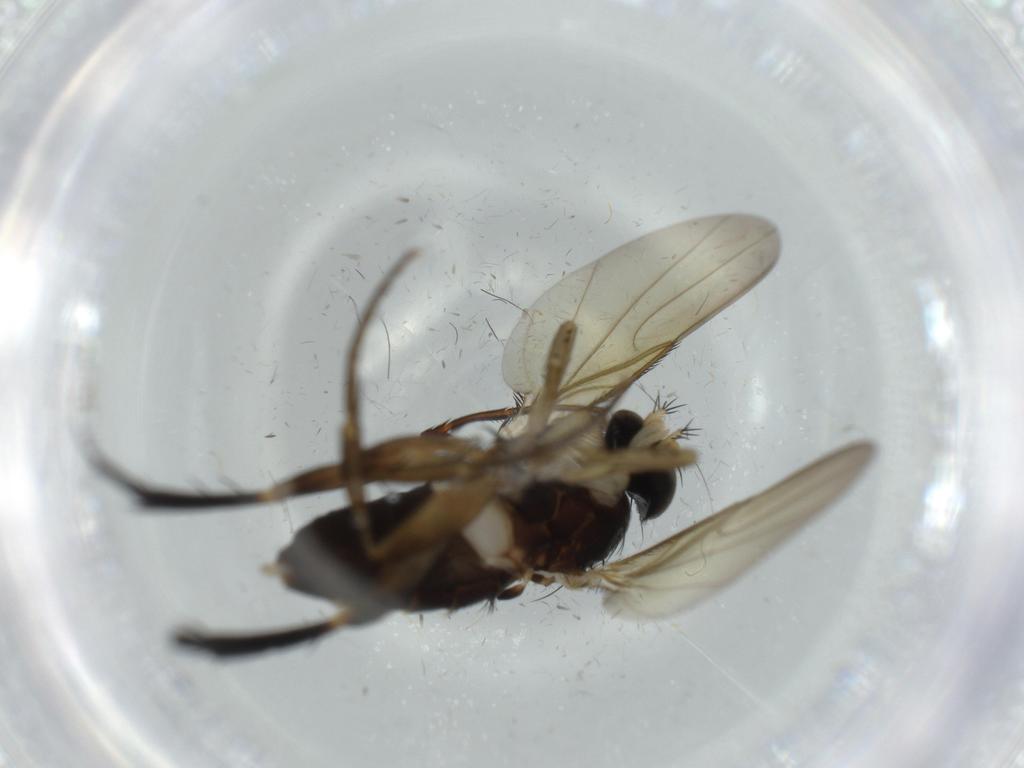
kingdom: Animalia
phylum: Arthropoda
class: Insecta
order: Diptera
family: Phoridae
